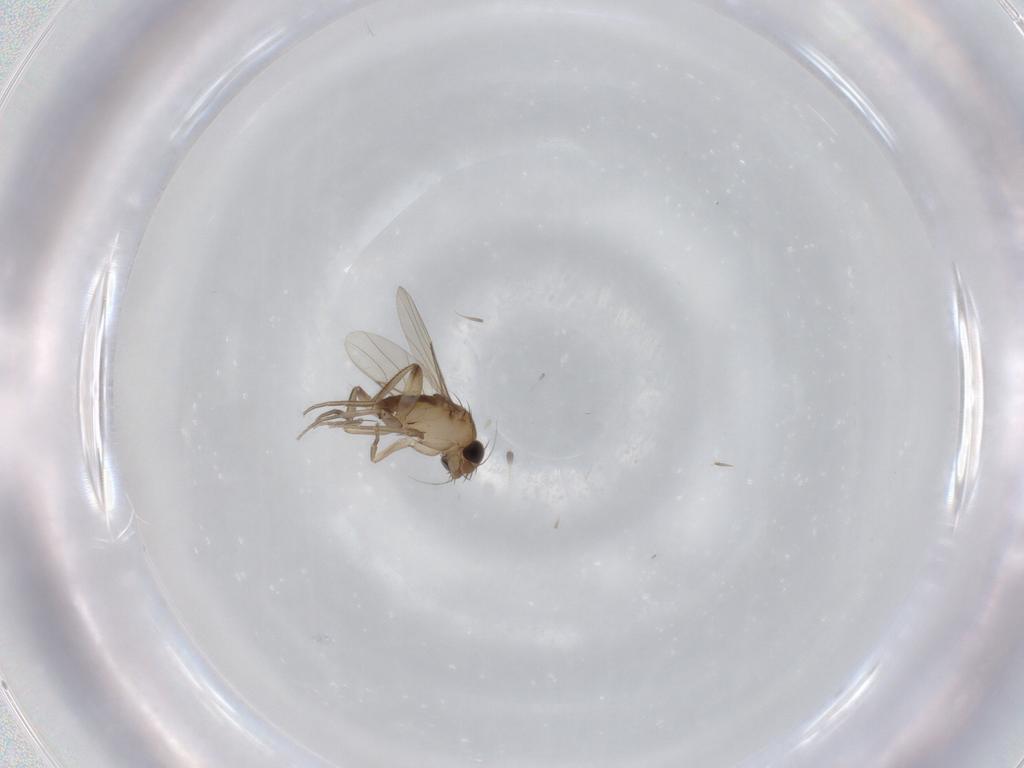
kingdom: Animalia
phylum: Arthropoda
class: Insecta
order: Diptera
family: Phoridae
